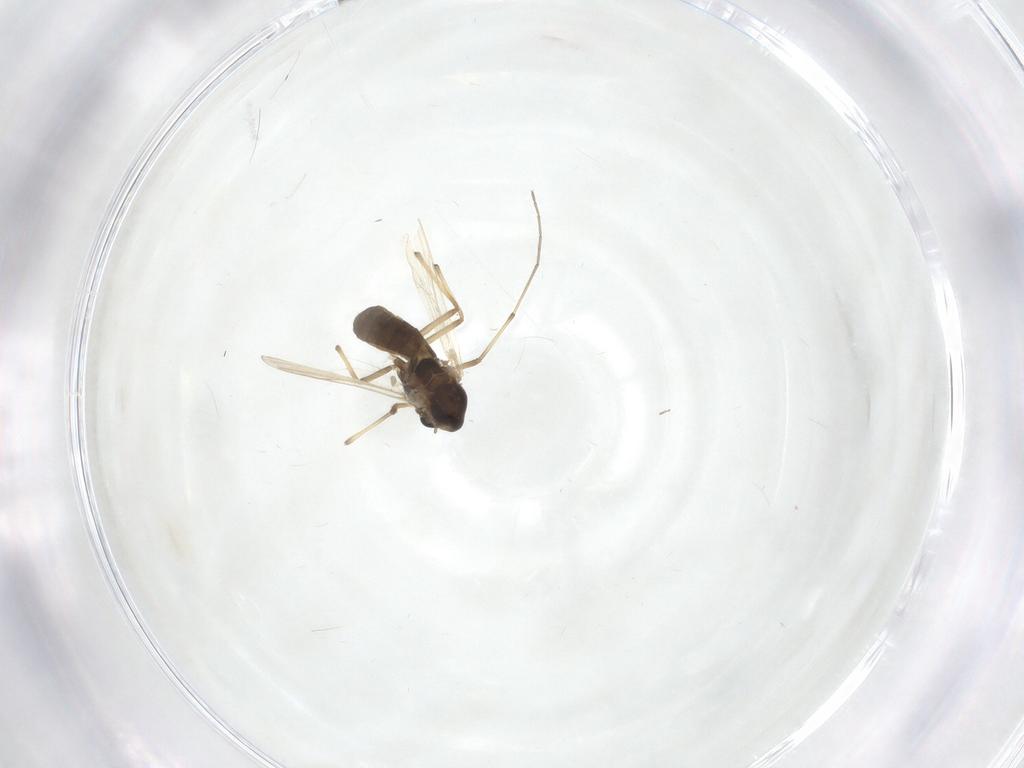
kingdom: Animalia
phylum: Arthropoda
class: Insecta
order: Diptera
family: Chironomidae
